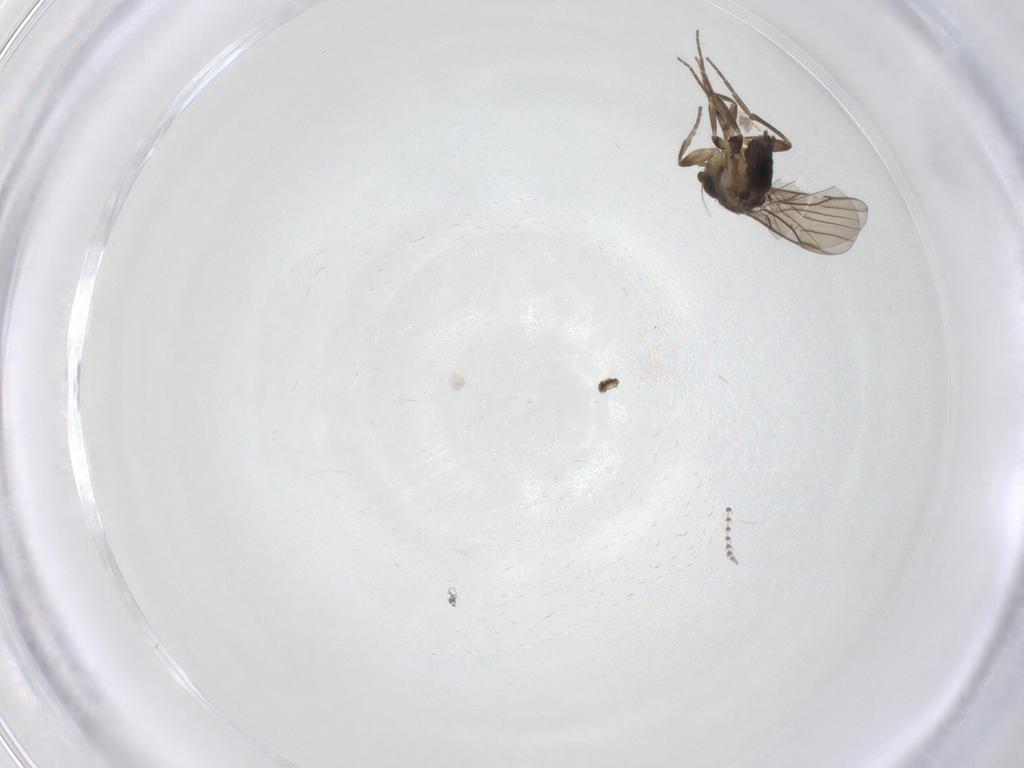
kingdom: Animalia
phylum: Arthropoda
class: Insecta
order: Diptera
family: Psychodidae
